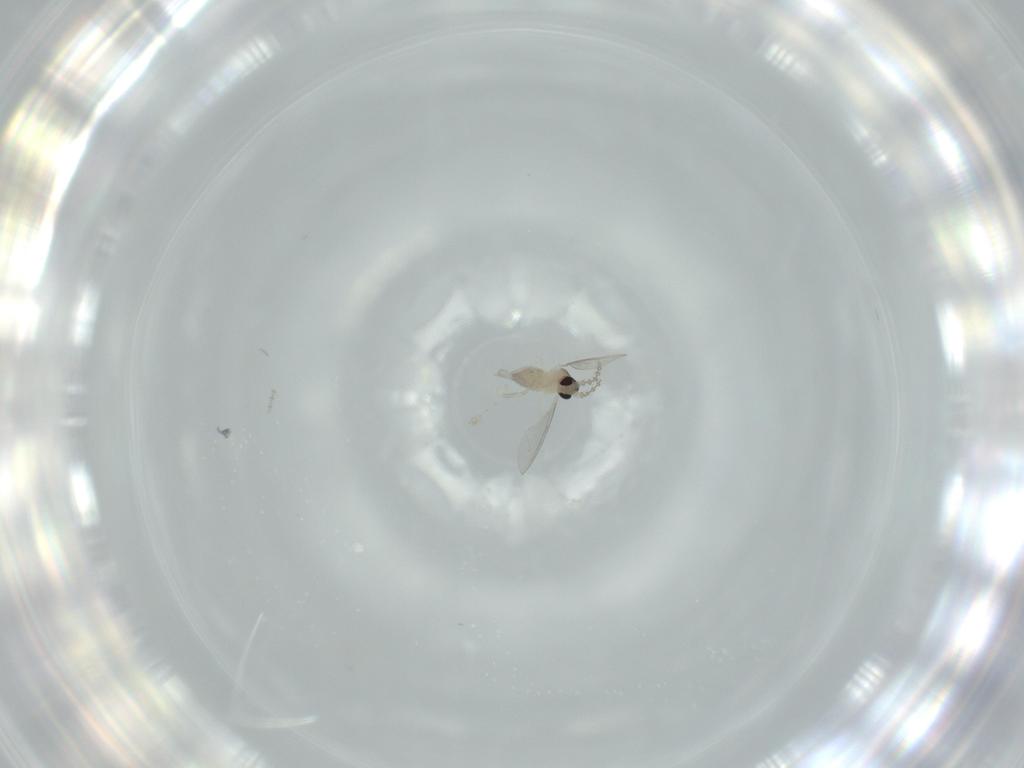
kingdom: Animalia
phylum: Arthropoda
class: Insecta
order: Diptera
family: Cecidomyiidae
